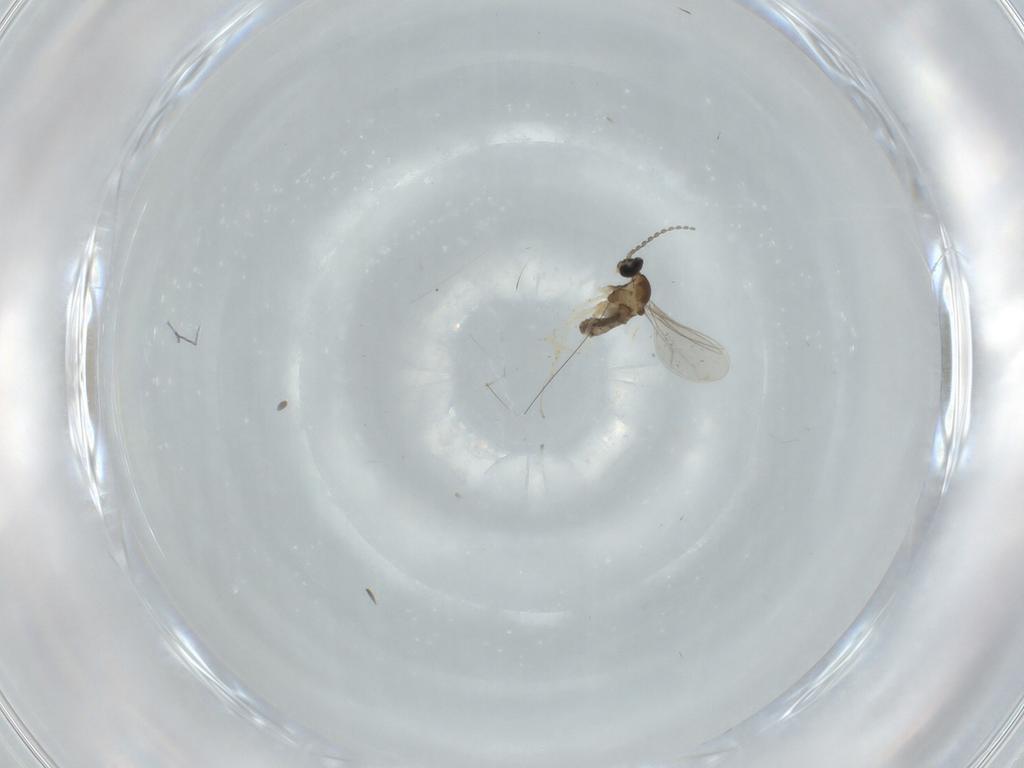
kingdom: Animalia
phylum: Arthropoda
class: Insecta
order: Diptera
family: Cecidomyiidae
